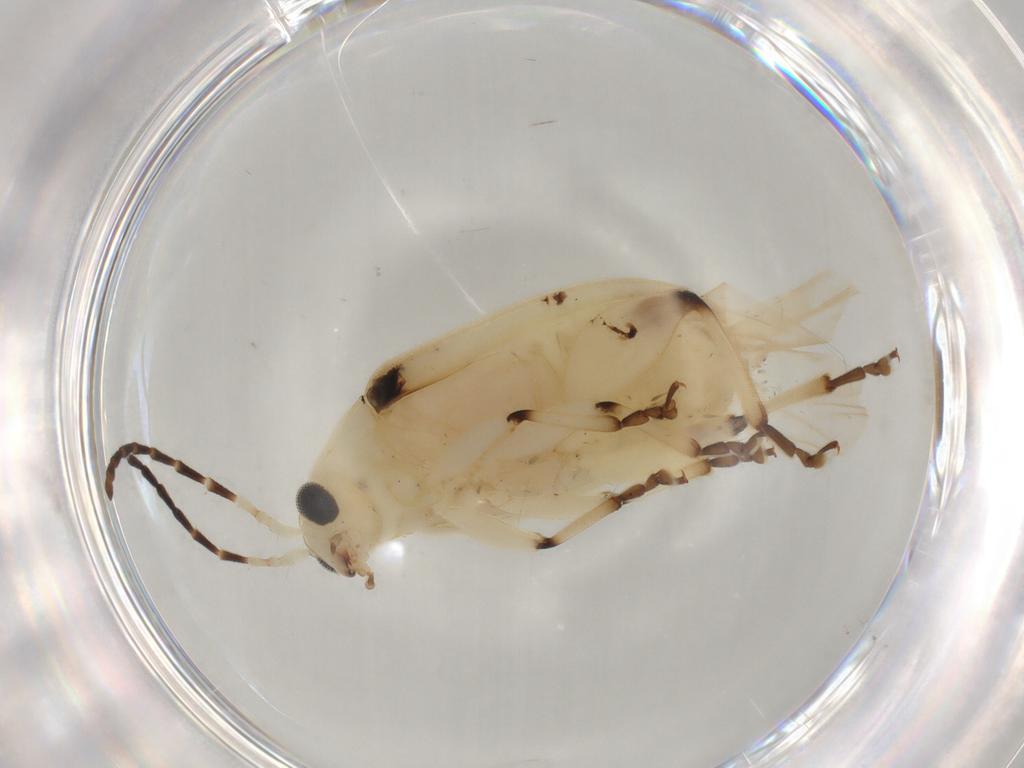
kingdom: Animalia
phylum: Arthropoda
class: Insecta
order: Coleoptera
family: Chrysomelidae
